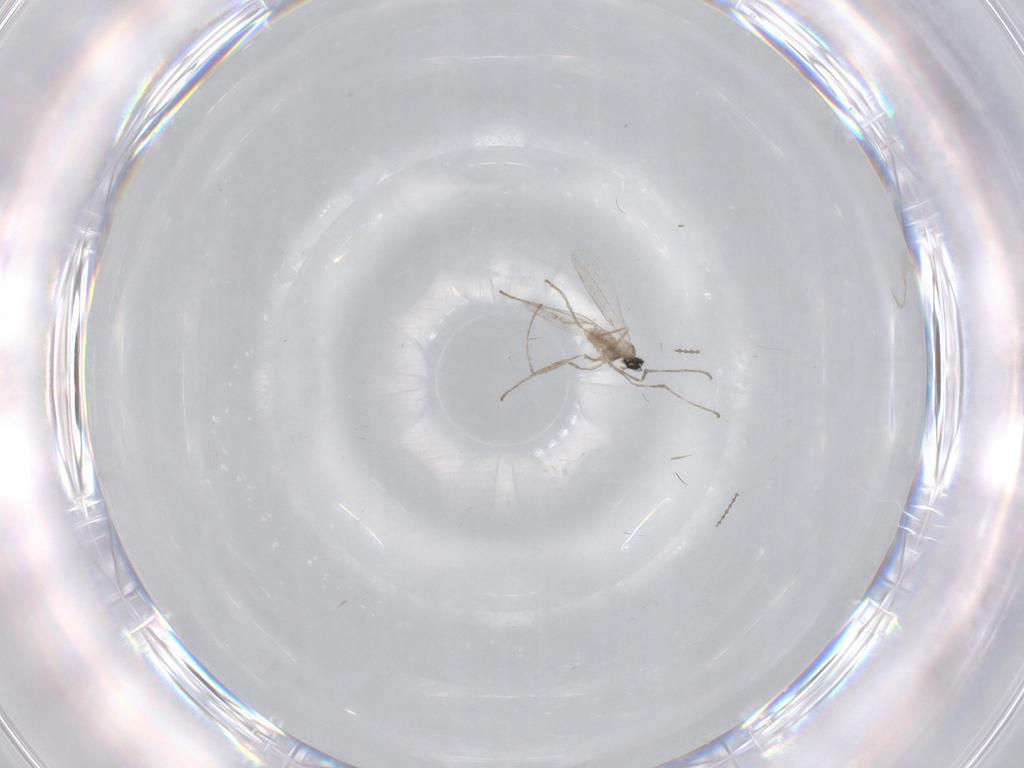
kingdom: Animalia
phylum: Arthropoda
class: Insecta
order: Diptera
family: Cecidomyiidae
